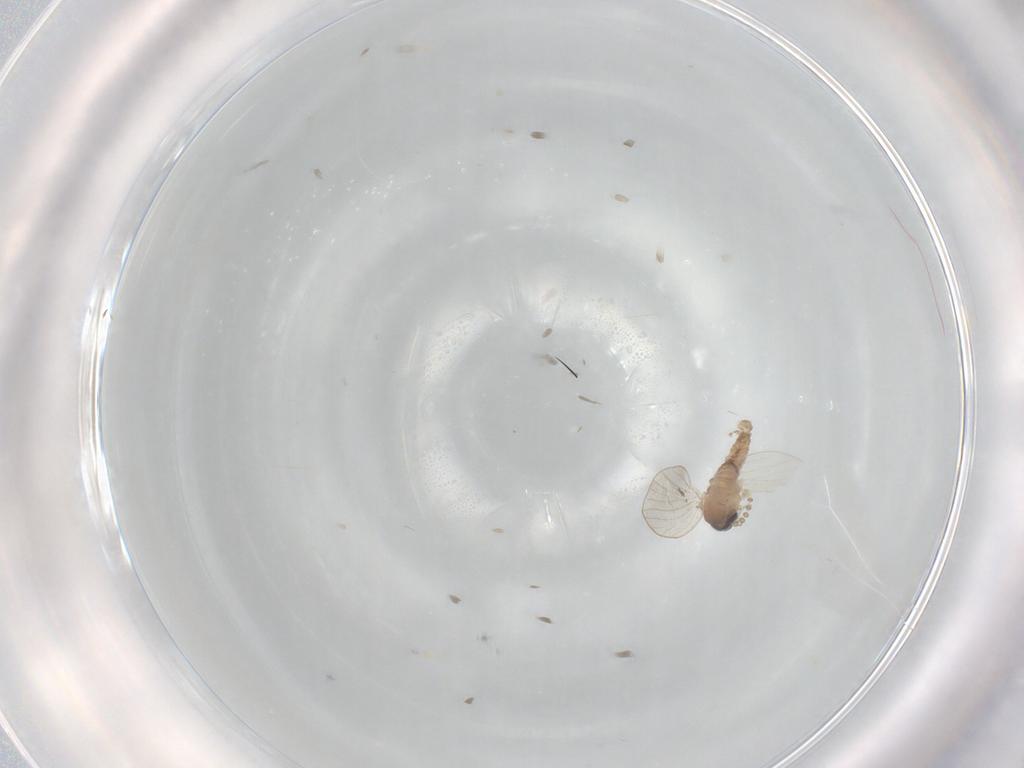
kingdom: Animalia
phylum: Arthropoda
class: Insecta
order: Diptera
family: Psychodidae
